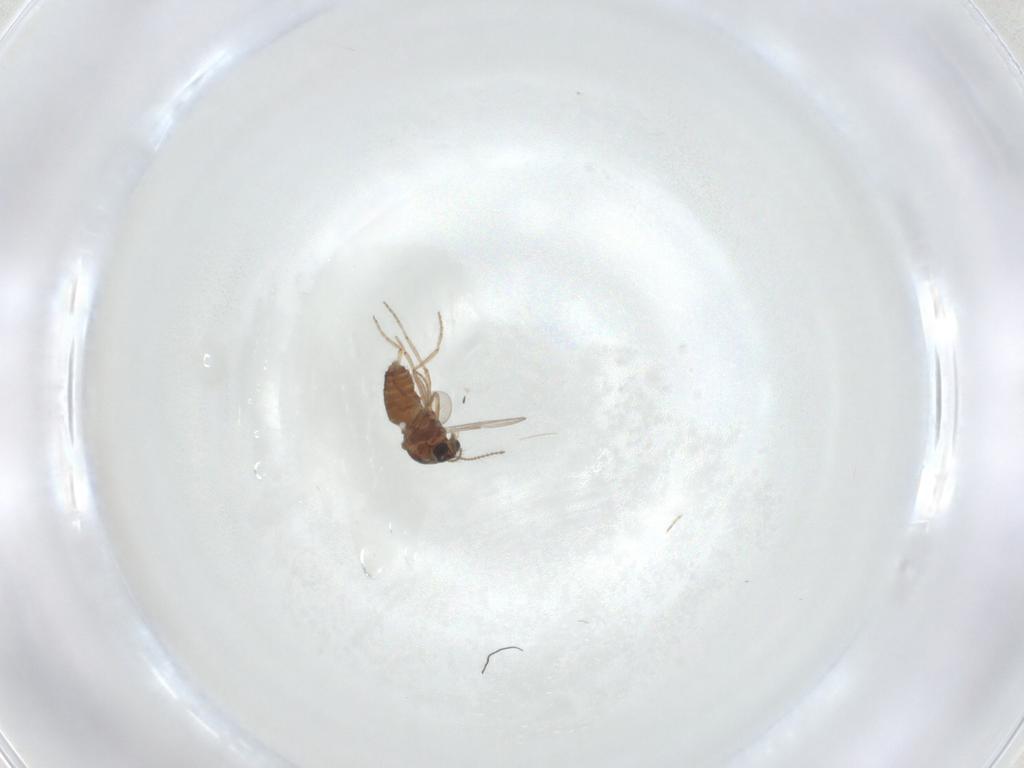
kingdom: Animalia
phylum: Arthropoda
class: Insecta
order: Diptera
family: Ceratopogonidae
